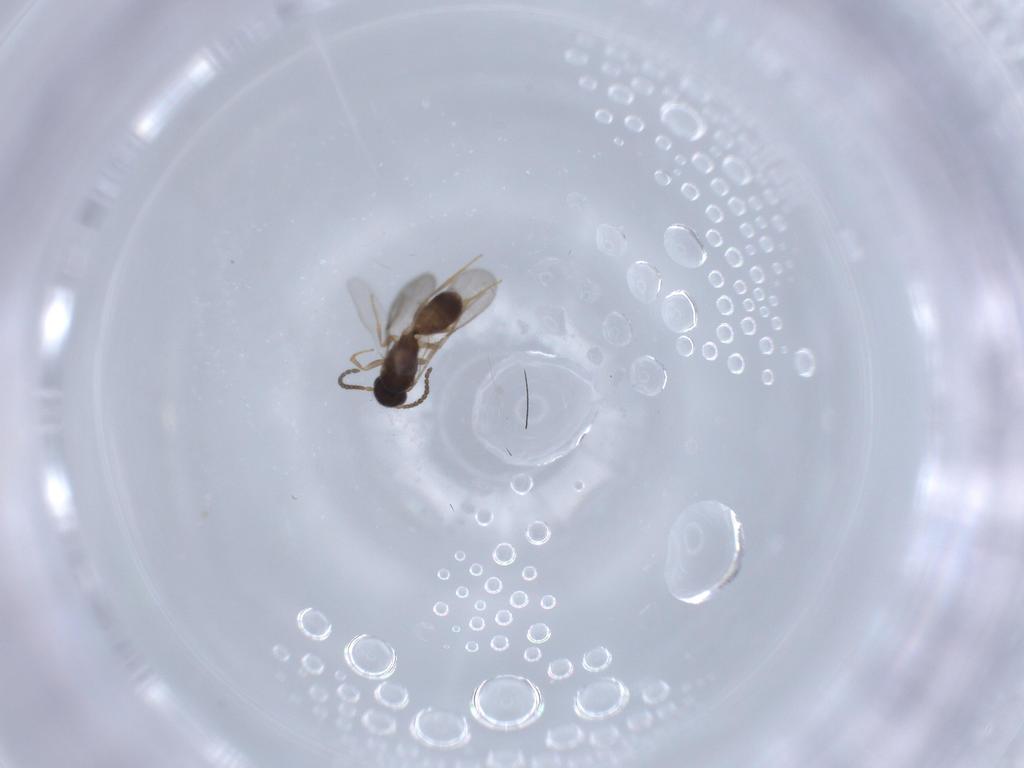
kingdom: Animalia
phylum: Arthropoda
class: Insecta
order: Hymenoptera
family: Bethylidae
